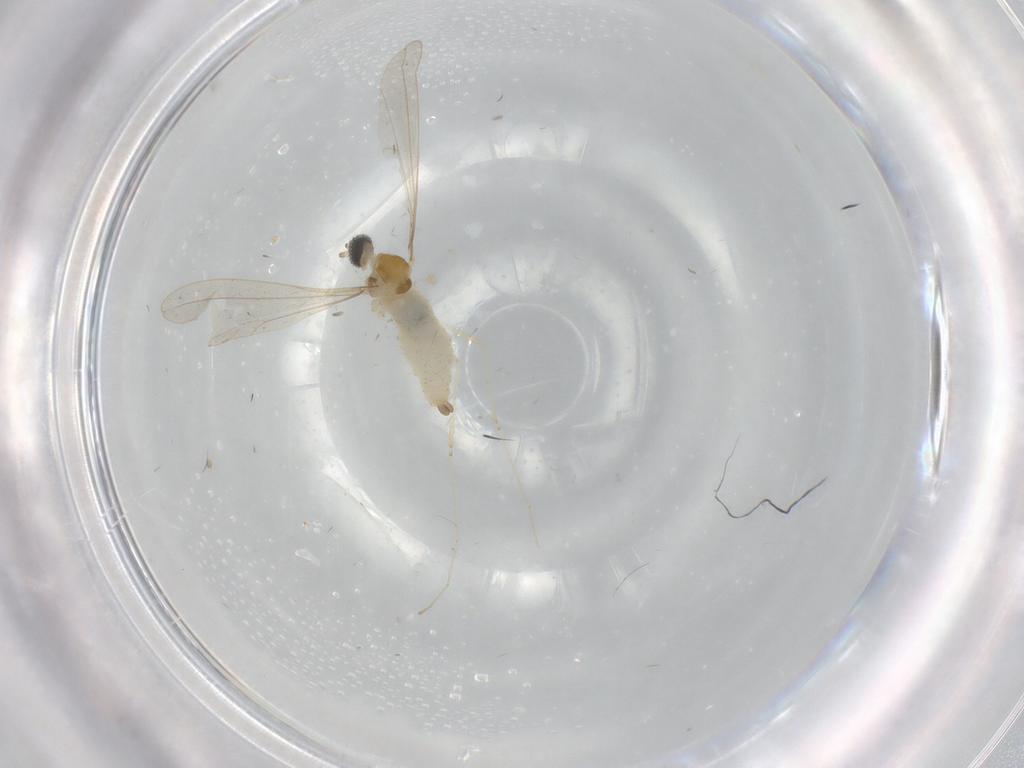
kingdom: Animalia
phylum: Arthropoda
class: Insecta
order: Diptera
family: Cecidomyiidae
